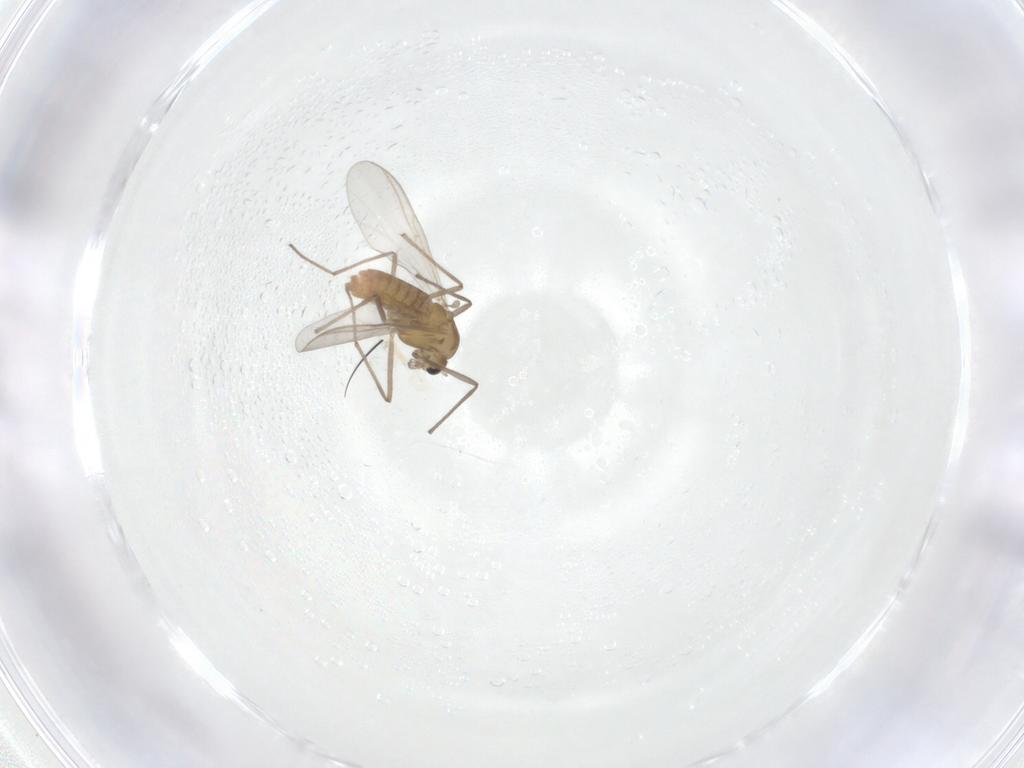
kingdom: Animalia
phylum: Arthropoda
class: Insecta
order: Diptera
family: Chironomidae
